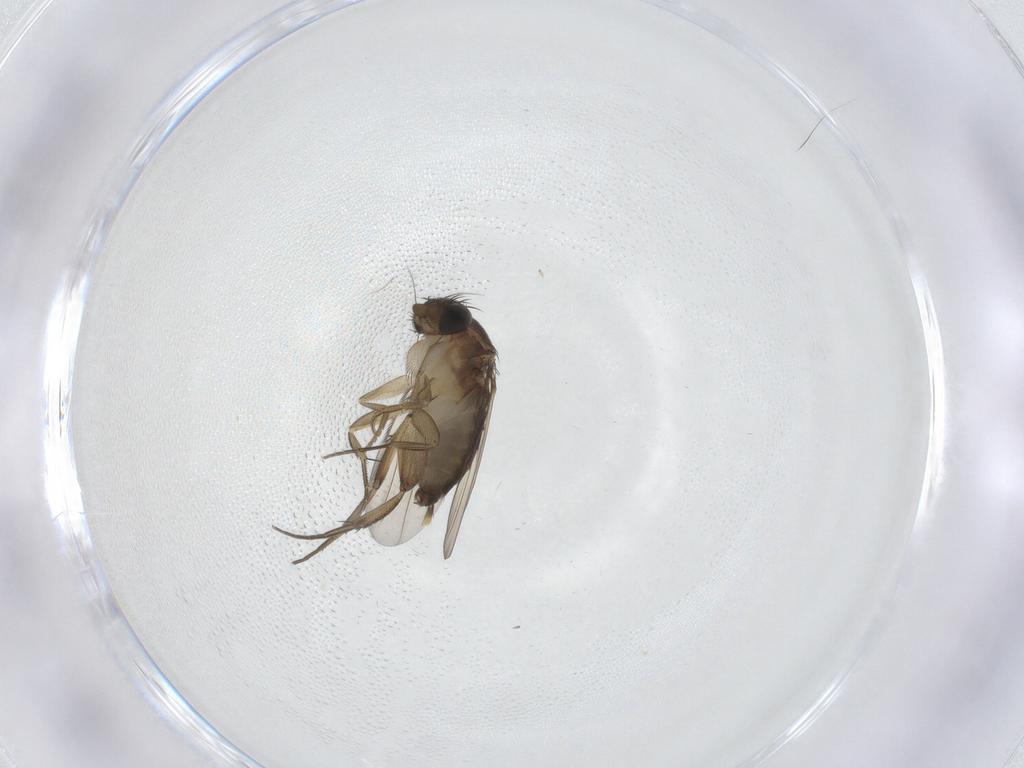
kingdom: Animalia
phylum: Arthropoda
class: Insecta
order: Diptera
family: Phoridae
